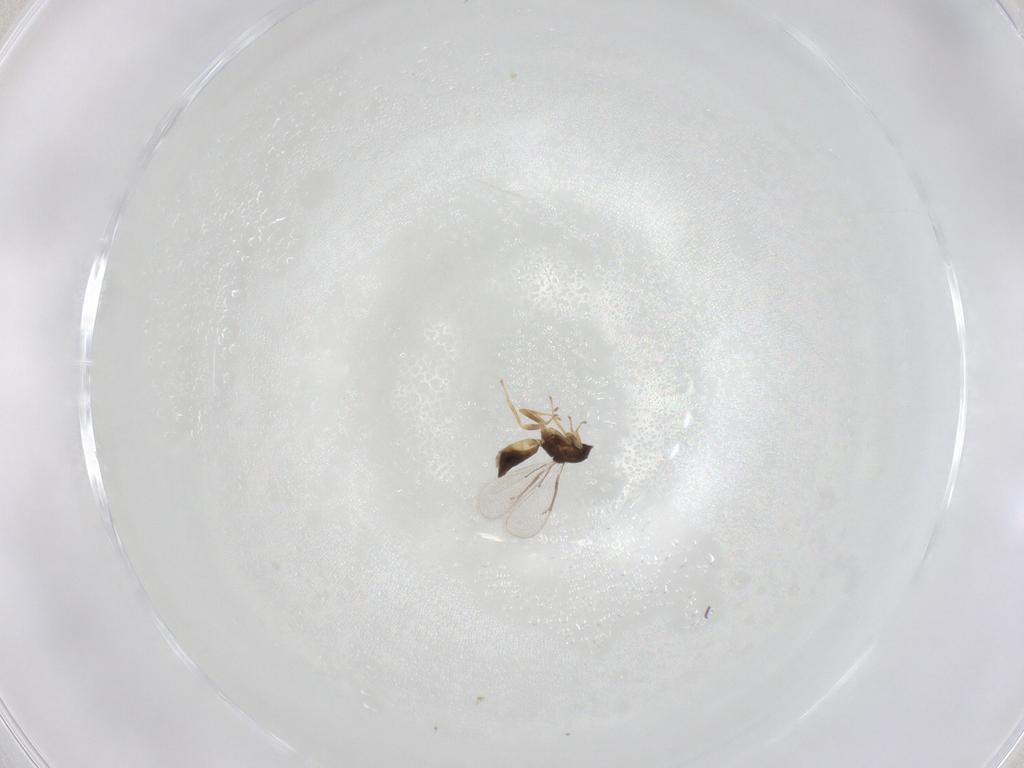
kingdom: Animalia
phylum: Arthropoda
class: Insecta
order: Hymenoptera
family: Eulophidae
